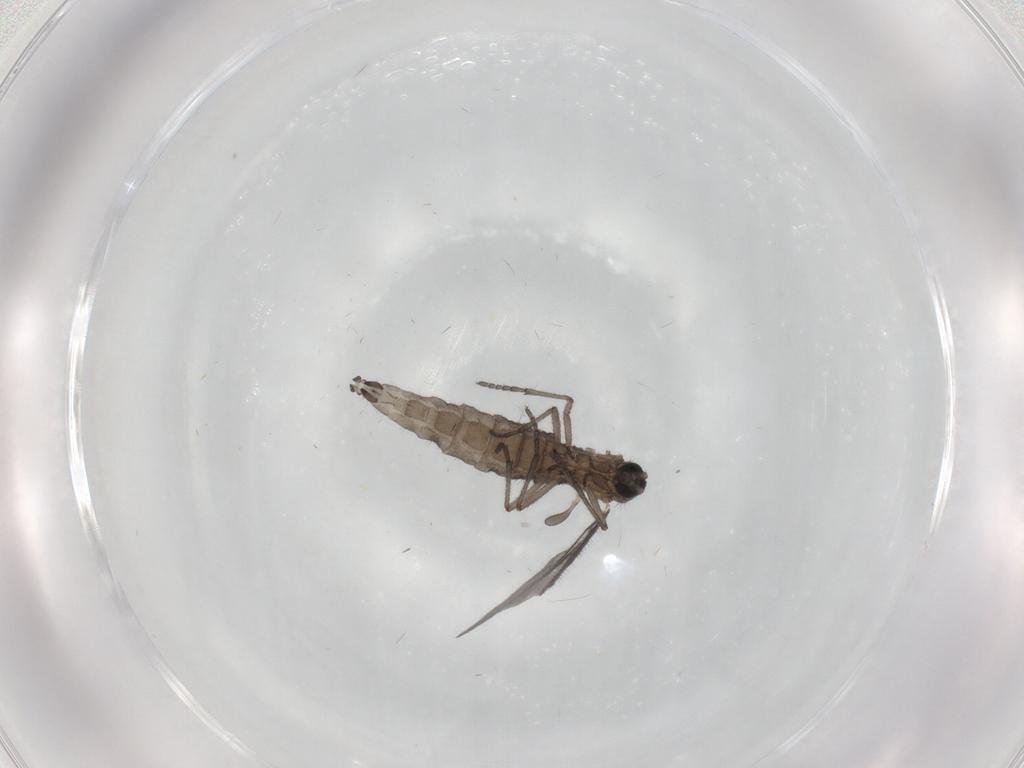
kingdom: Animalia
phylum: Arthropoda
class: Insecta
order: Diptera
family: Sciaridae
